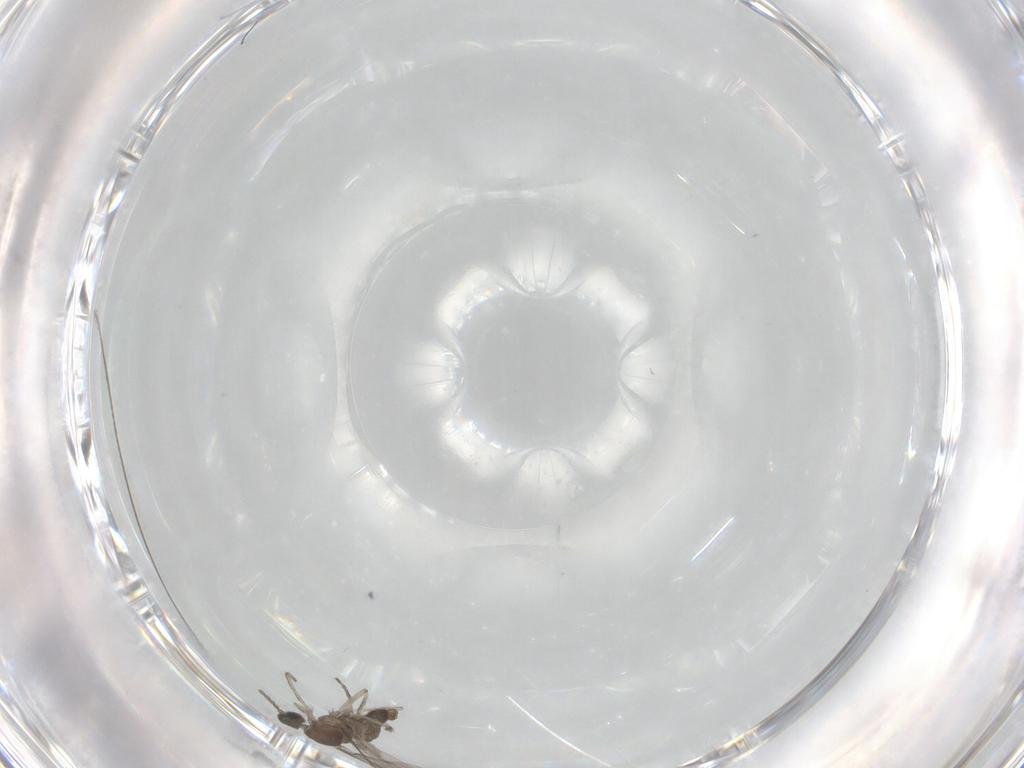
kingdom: Animalia
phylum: Arthropoda
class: Insecta
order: Diptera
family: Cecidomyiidae
